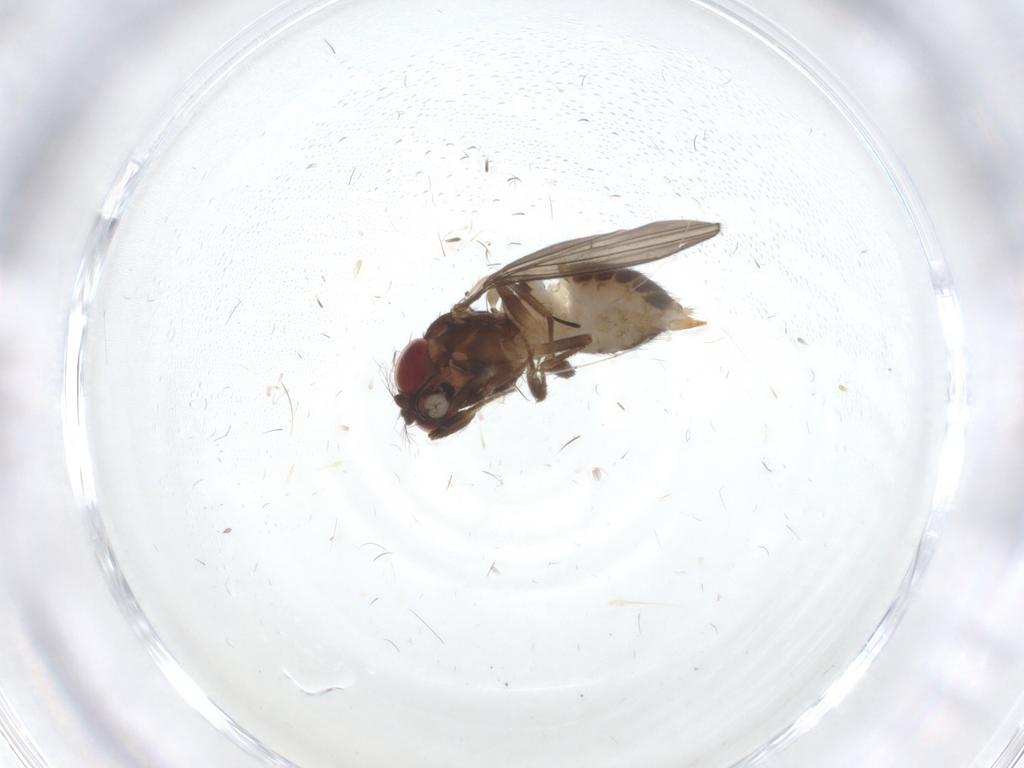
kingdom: Animalia
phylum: Arthropoda
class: Insecta
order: Diptera
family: Drosophilidae
